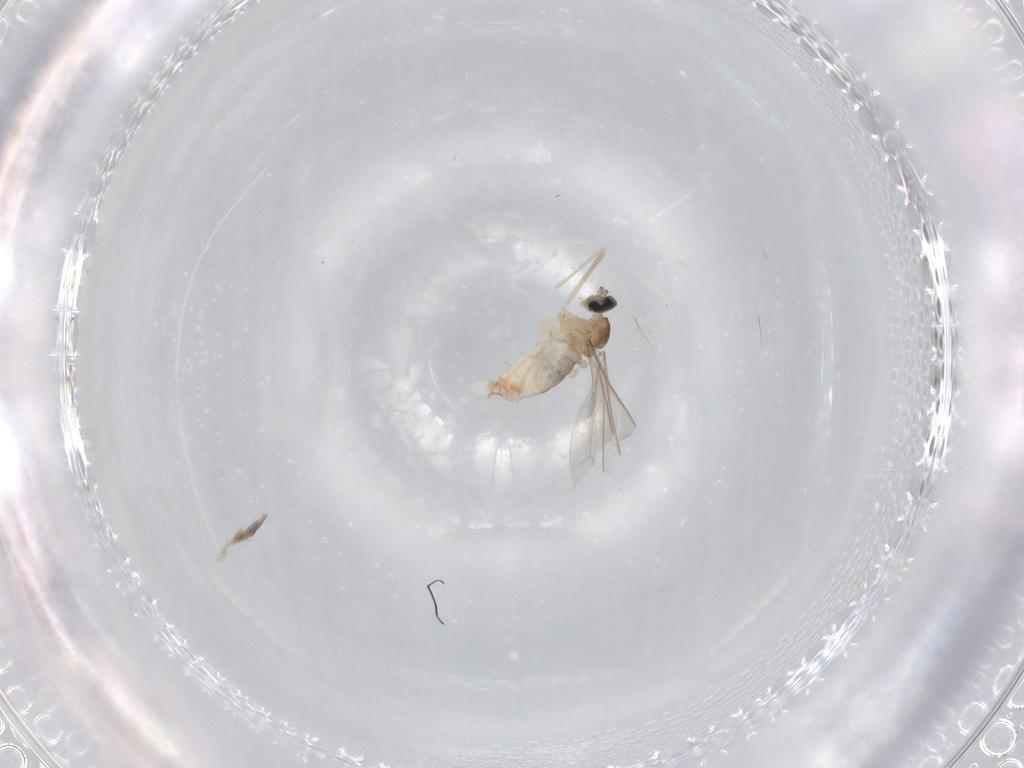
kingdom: Animalia
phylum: Arthropoda
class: Insecta
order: Diptera
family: Cecidomyiidae
